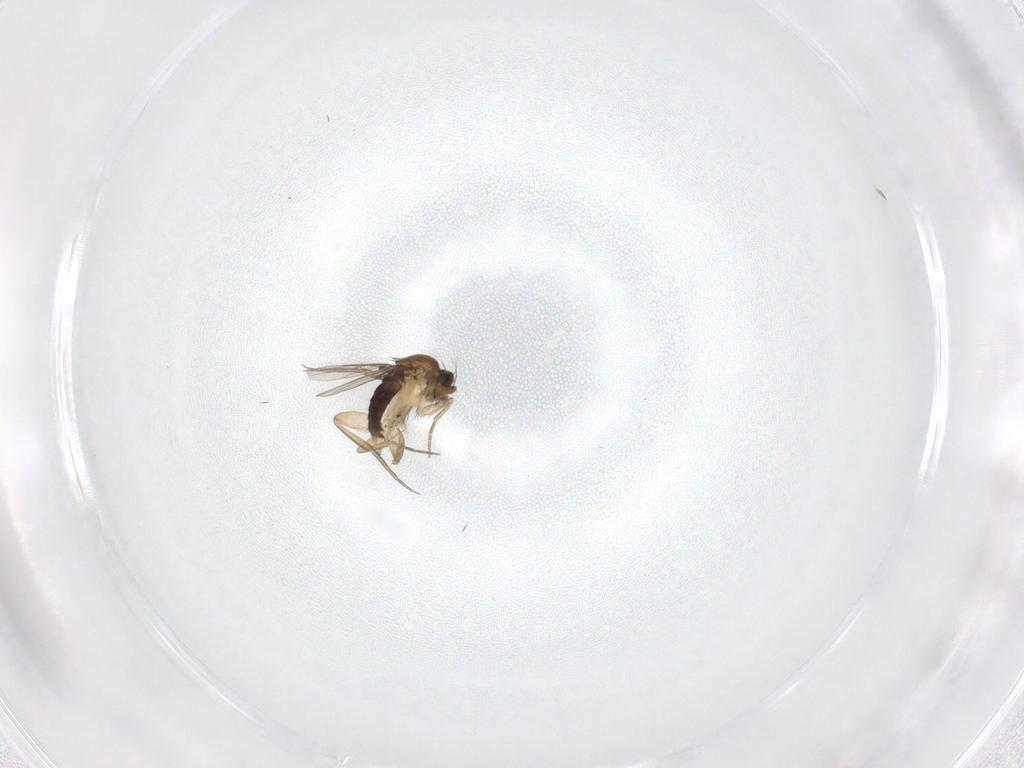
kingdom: Animalia
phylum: Arthropoda
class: Insecta
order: Diptera
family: Phoridae
